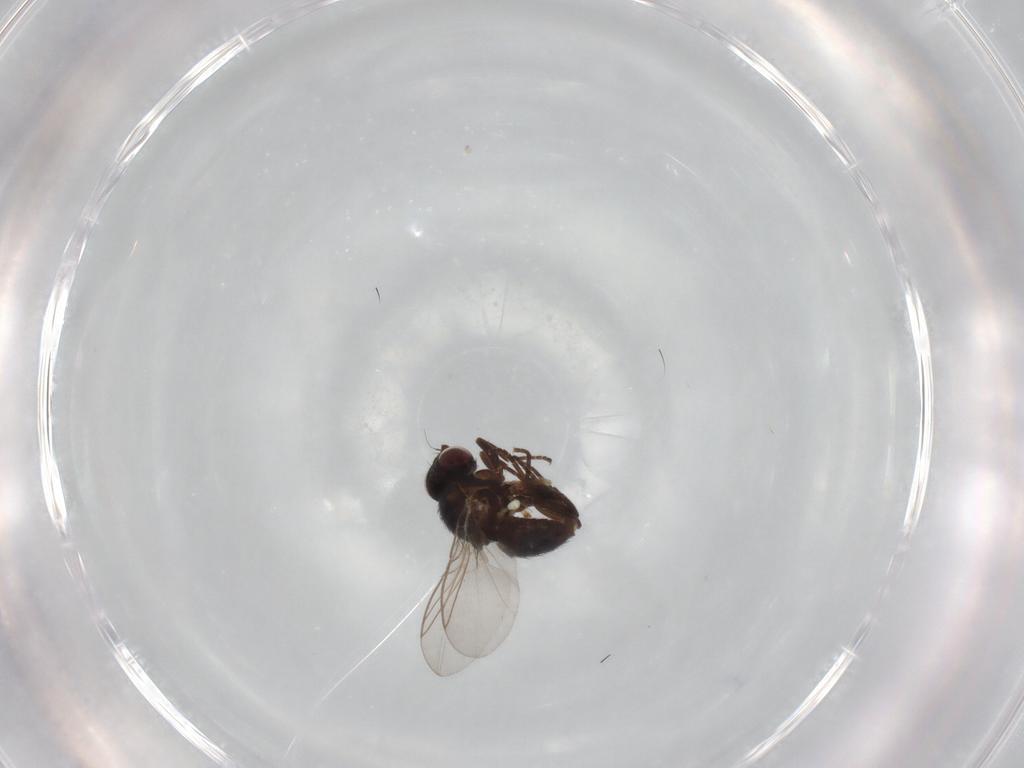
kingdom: Animalia
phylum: Arthropoda
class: Insecta
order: Diptera
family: Cecidomyiidae
